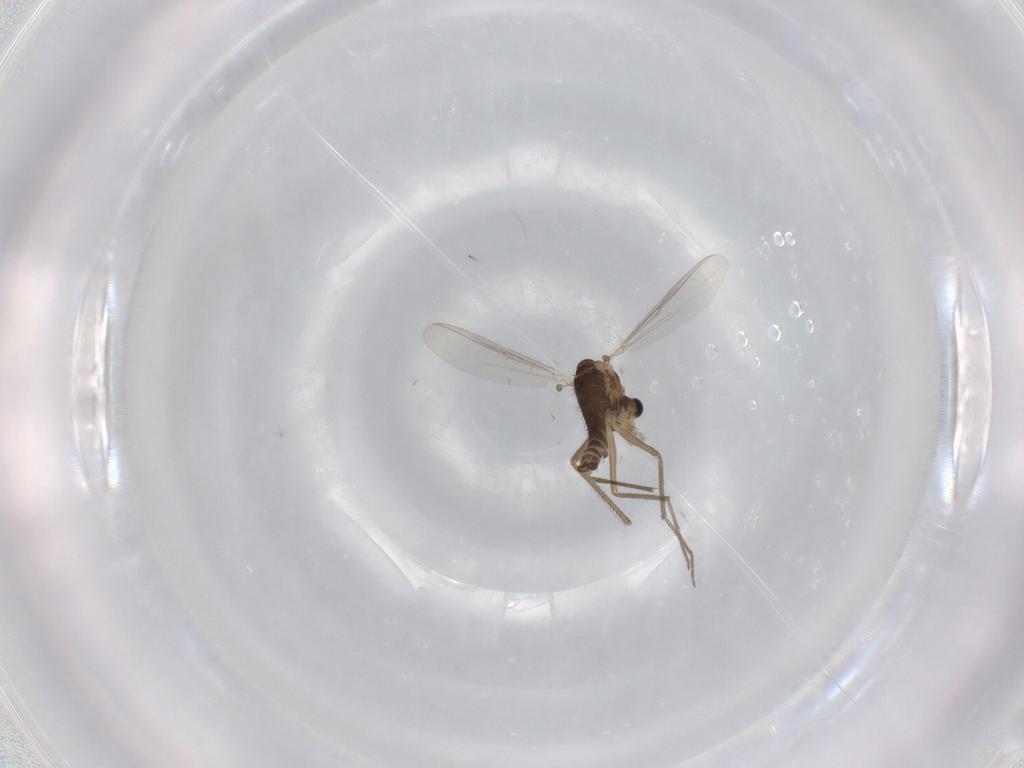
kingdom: Animalia
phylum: Arthropoda
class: Insecta
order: Diptera
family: Chironomidae
